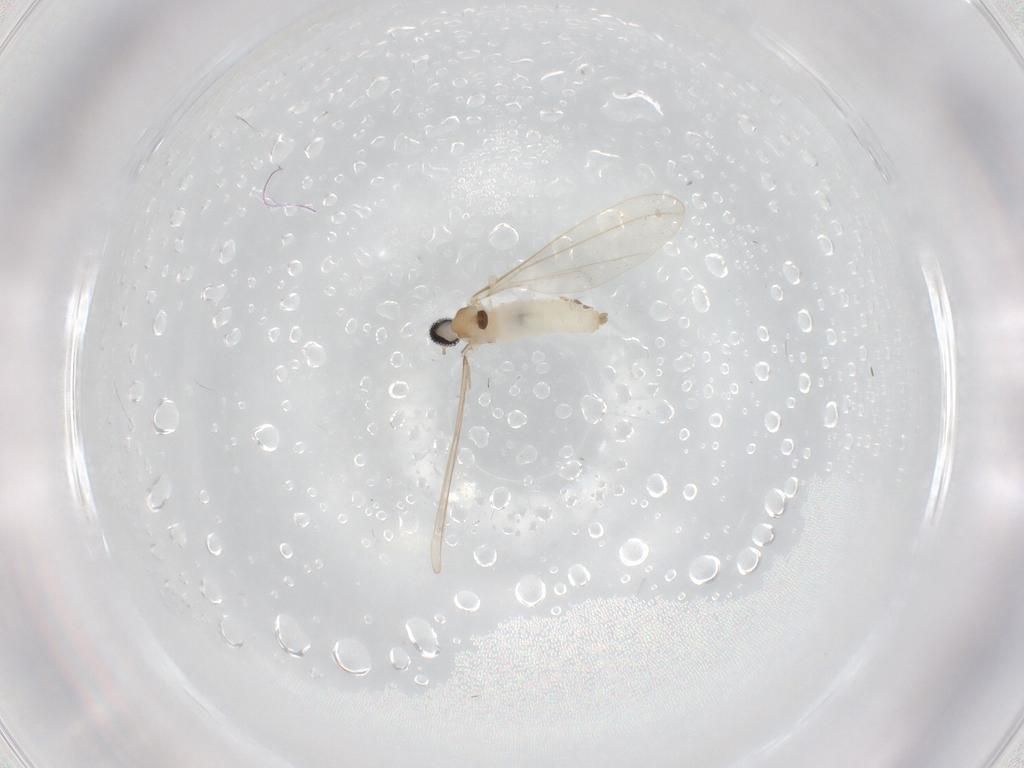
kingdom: Animalia
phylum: Arthropoda
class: Insecta
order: Diptera
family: Cecidomyiidae
